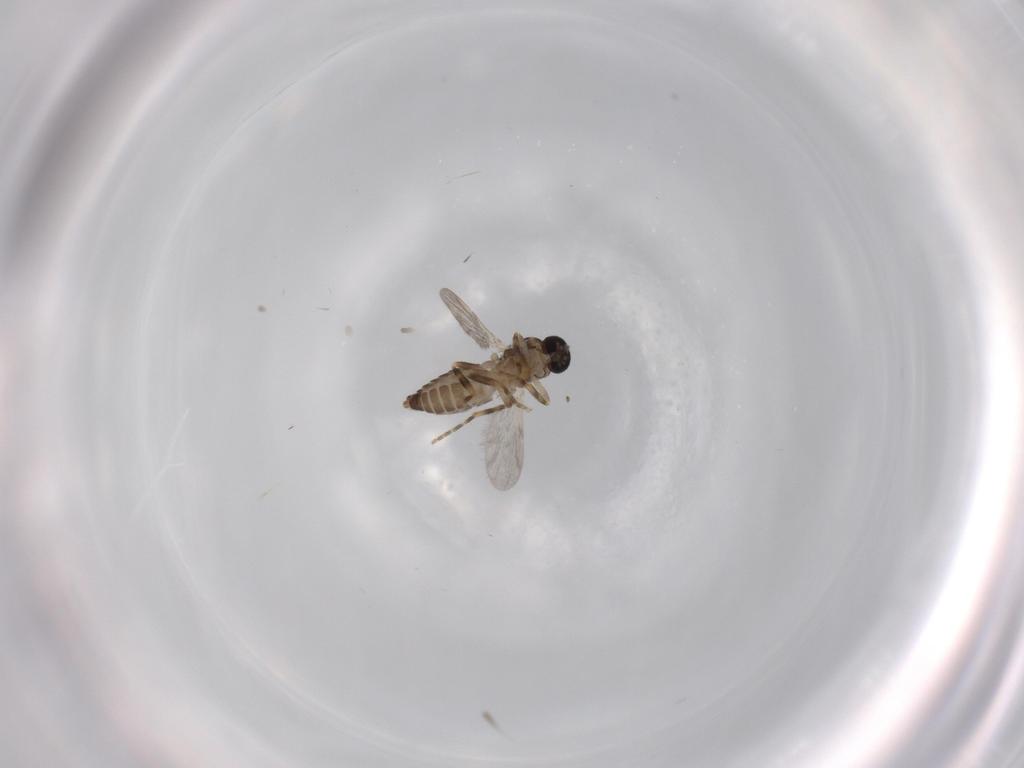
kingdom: Animalia
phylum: Arthropoda
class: Insecta
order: Diptera
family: Ceratopogonidae
